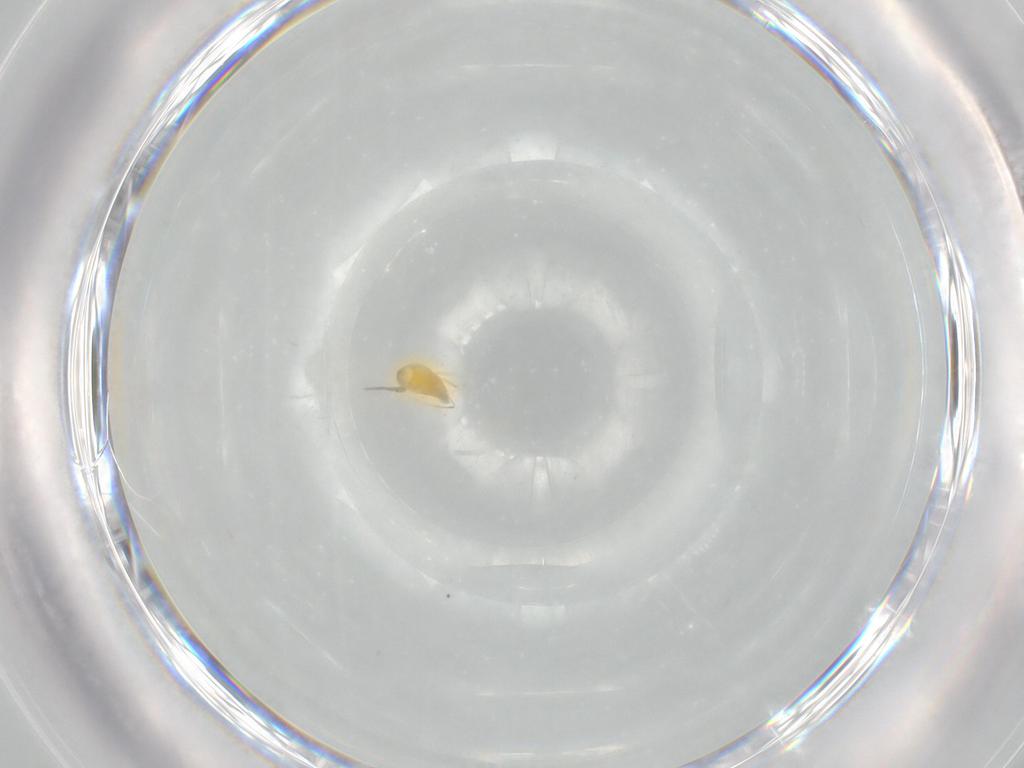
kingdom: Animalia
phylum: Arthropoda
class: Insecta
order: Hymenoptera
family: Scelionidae
